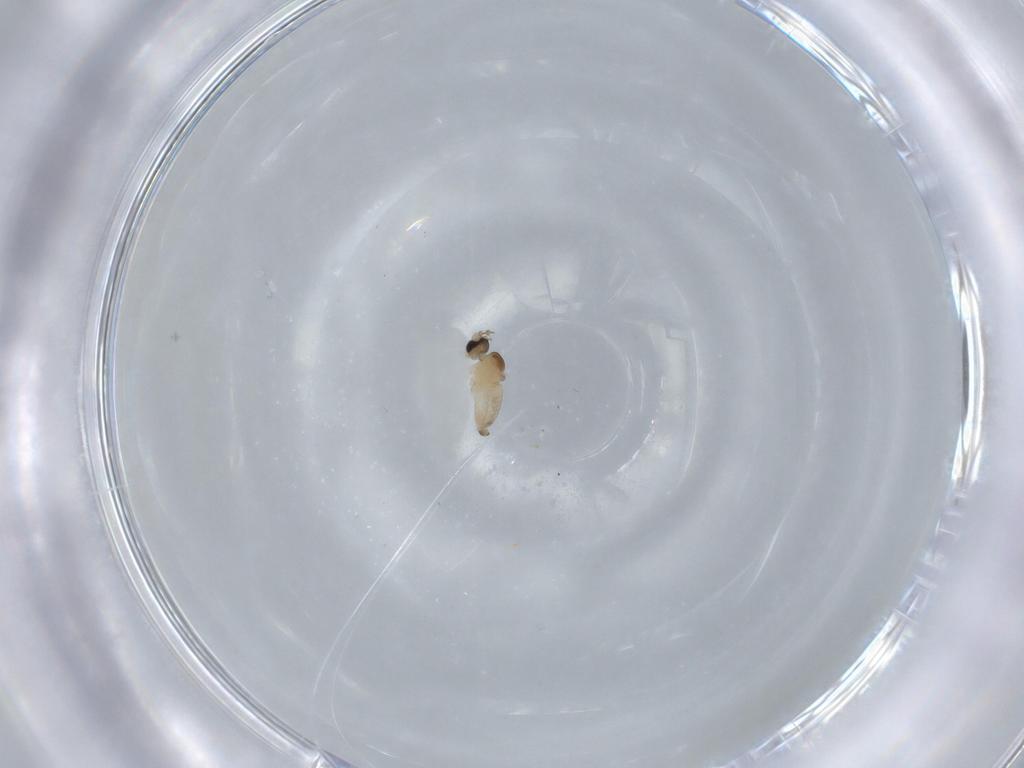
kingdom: Animalia
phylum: Arthropoda
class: Insecta
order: Diptera
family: Cecidomyiidae
